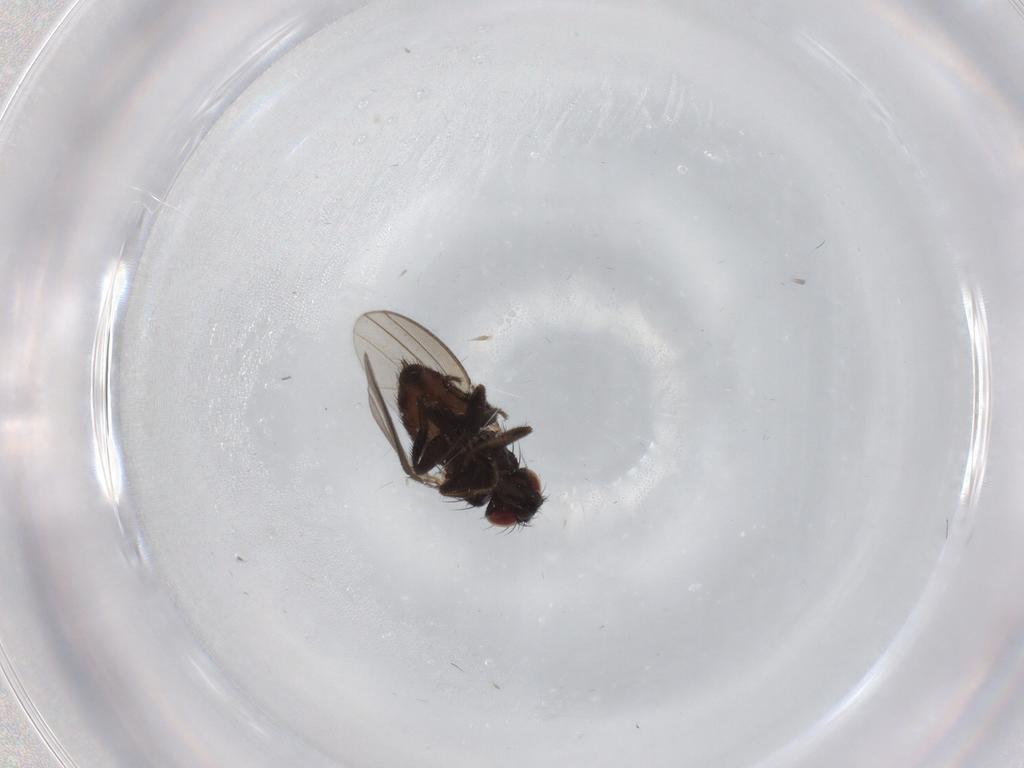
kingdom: Animalia
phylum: Arthropoda
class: Insecta
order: Diptera
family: Milichiidae
